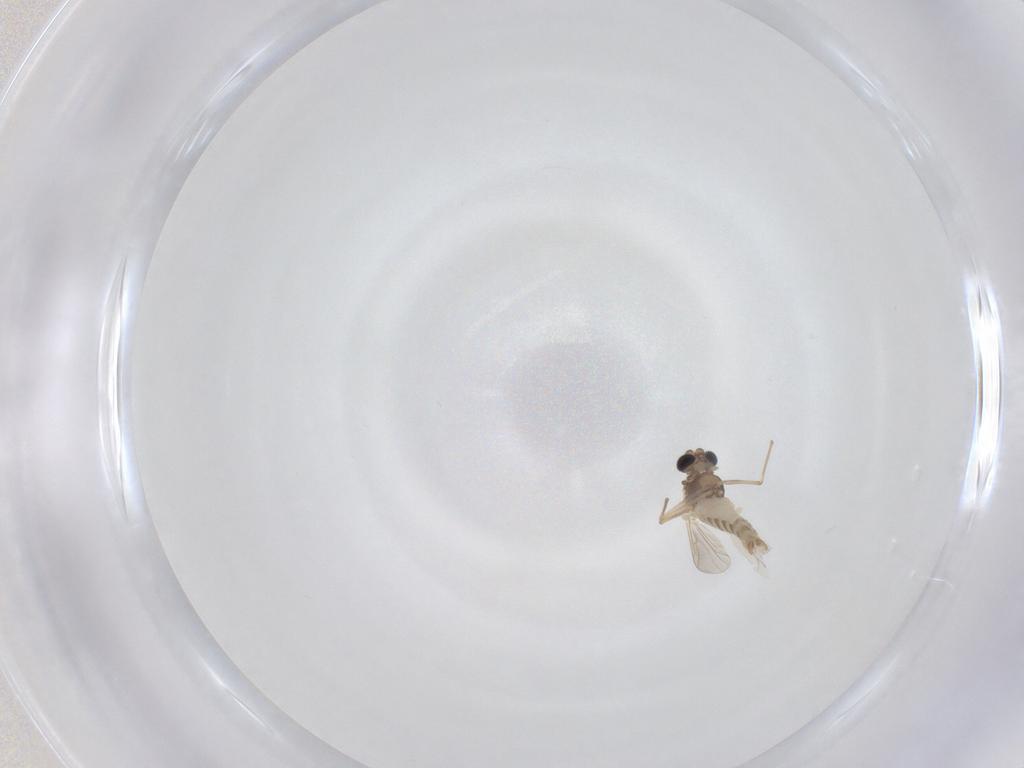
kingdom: Animalia
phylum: Arthropoda
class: Insecta
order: Diptera
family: Chironomidae
